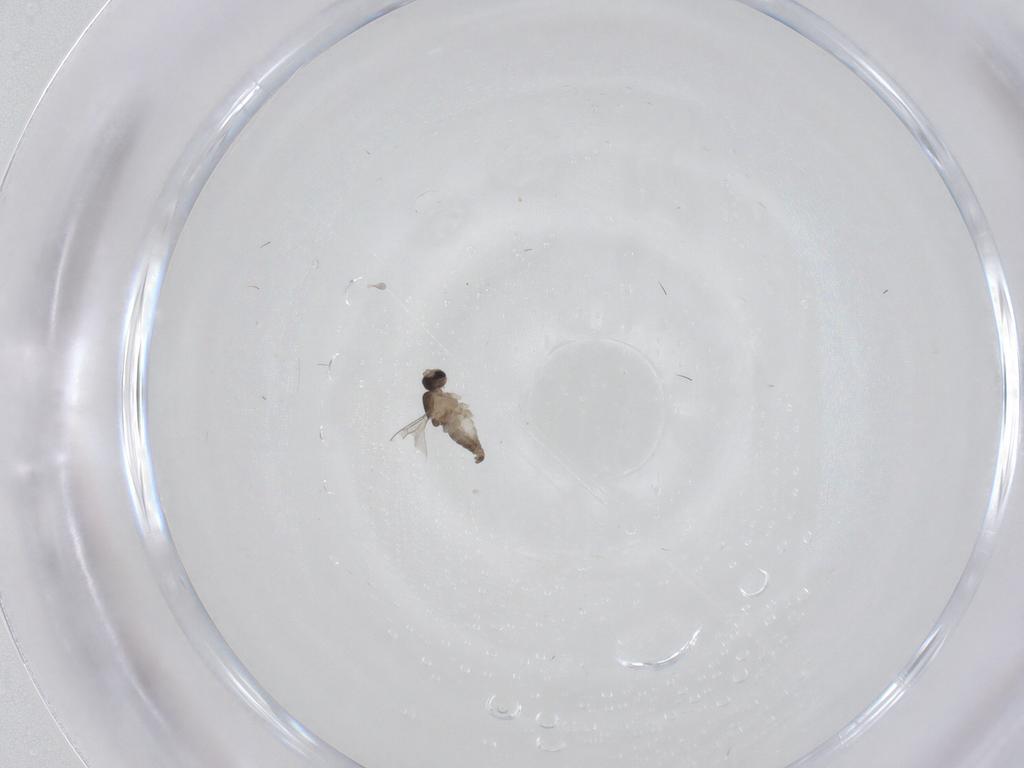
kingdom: Animalia
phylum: Arthropoda
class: Insecta
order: Diptera
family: Cecidomyiidae
